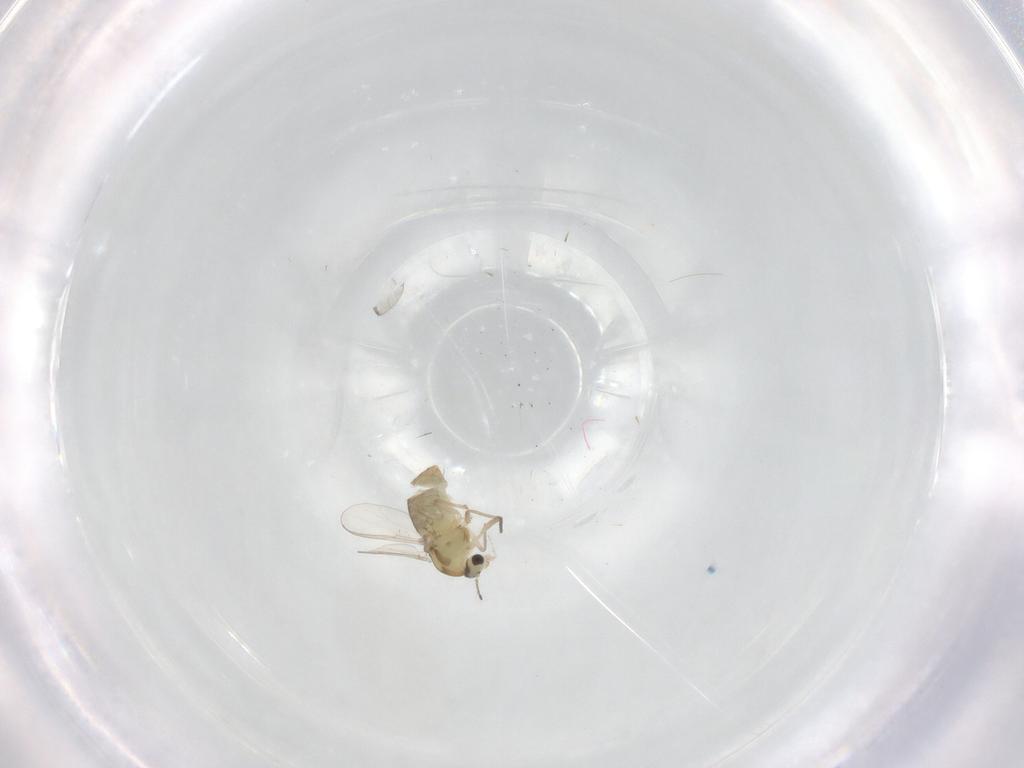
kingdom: Animalia
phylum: Arthropoda
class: Insecta
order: Diptera
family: Chironomidae
